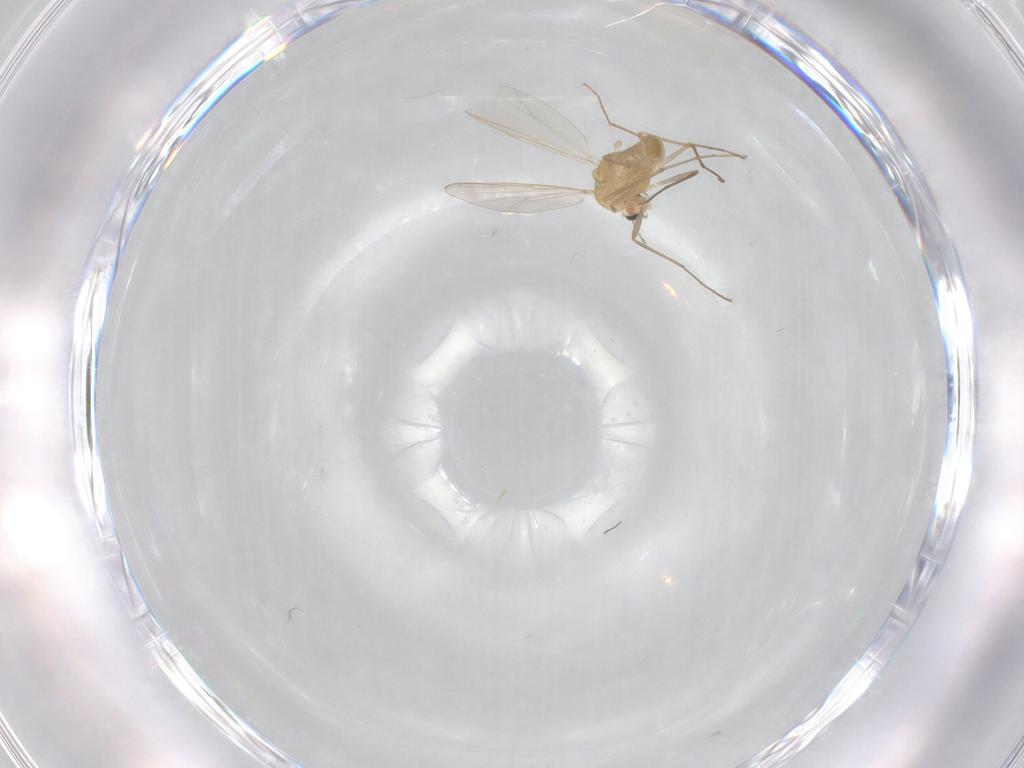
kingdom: Animalia
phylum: Arthropoda
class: Insecta
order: Diptera
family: Chironomidae
